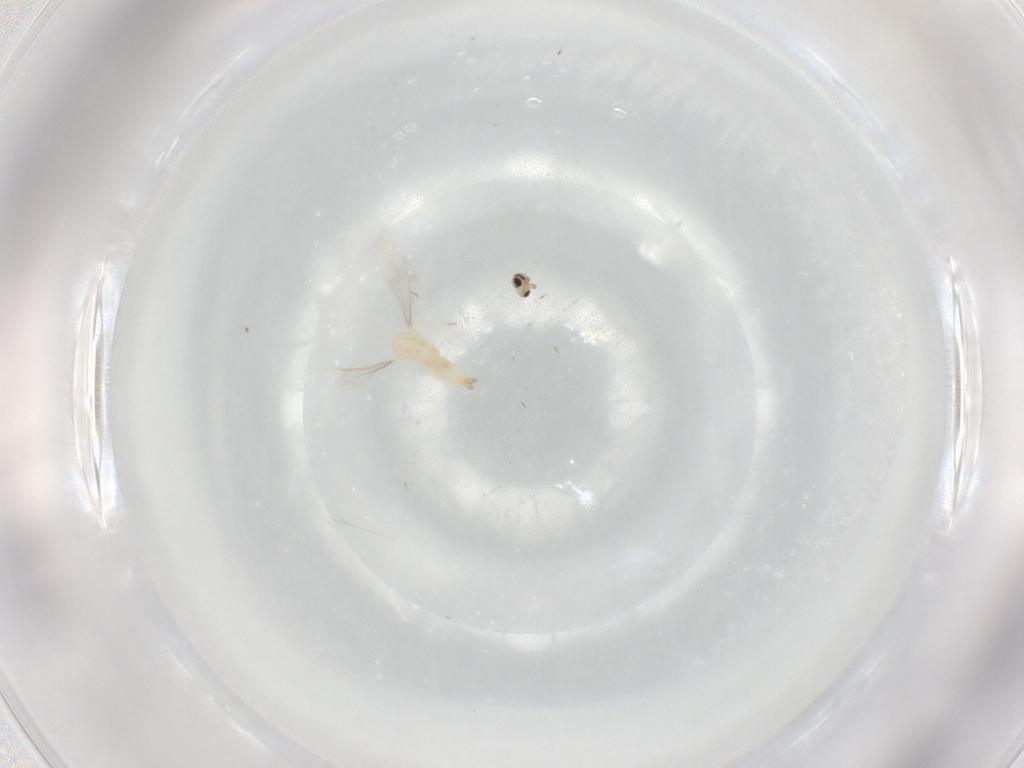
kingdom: Animalia
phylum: Arthropoda
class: Insecta
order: Diptera
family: Cecidomyiidae
